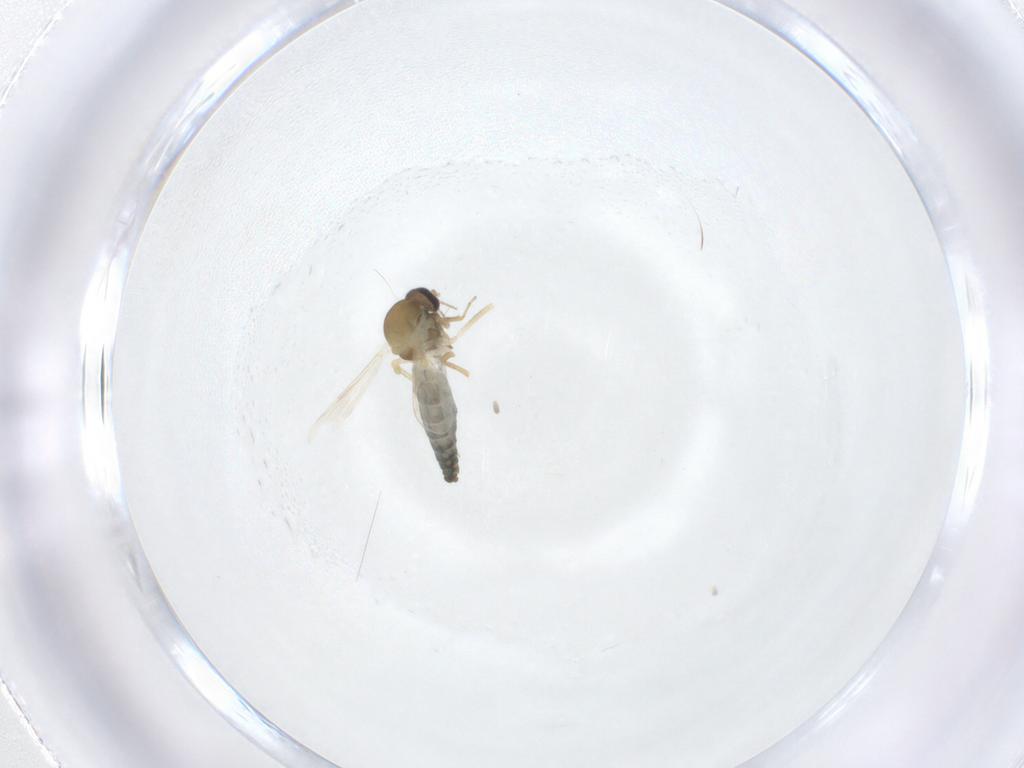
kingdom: Animalia
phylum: Arthropoda
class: Insecta
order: Diptera
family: Ceratopogonidae
